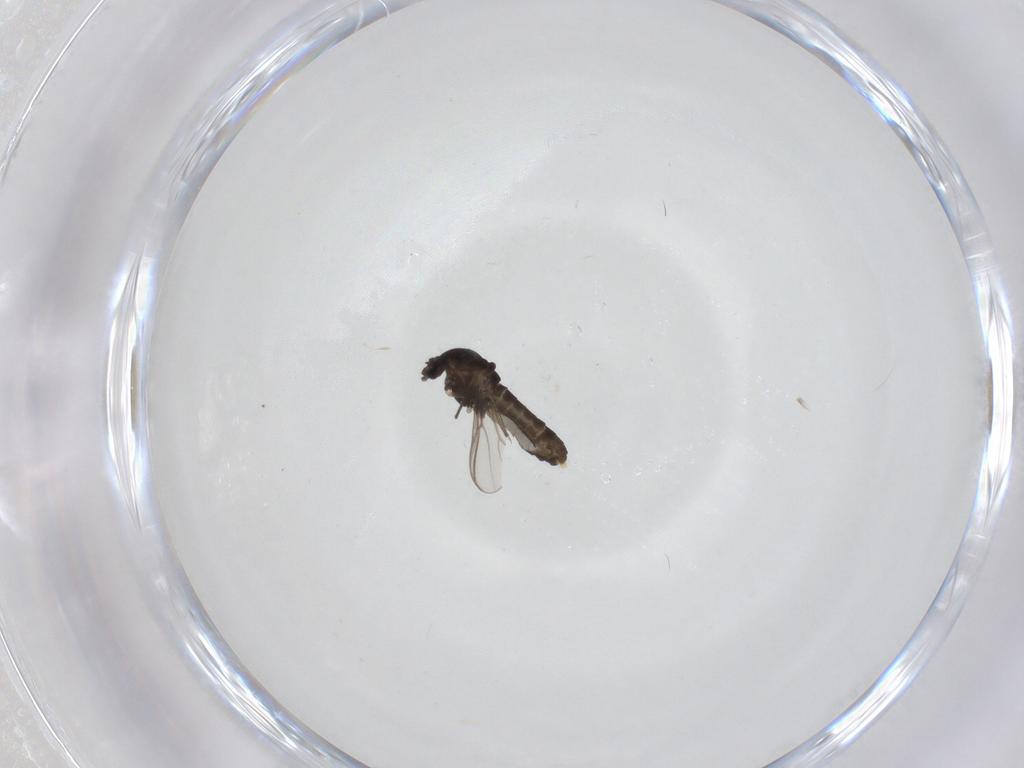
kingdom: Animalia
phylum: Arthropoda
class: Insecta
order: Diptera
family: Chironomidae
